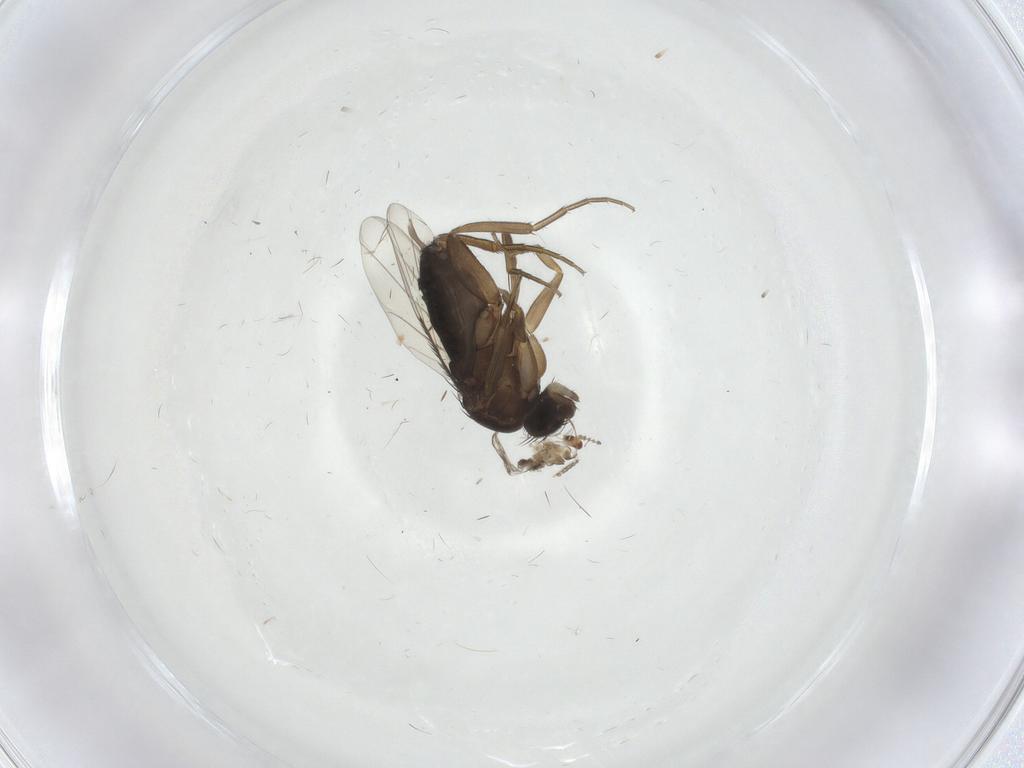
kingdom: Animalia
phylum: Arthropoda
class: Insecta
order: Diptera
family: Phoridae
